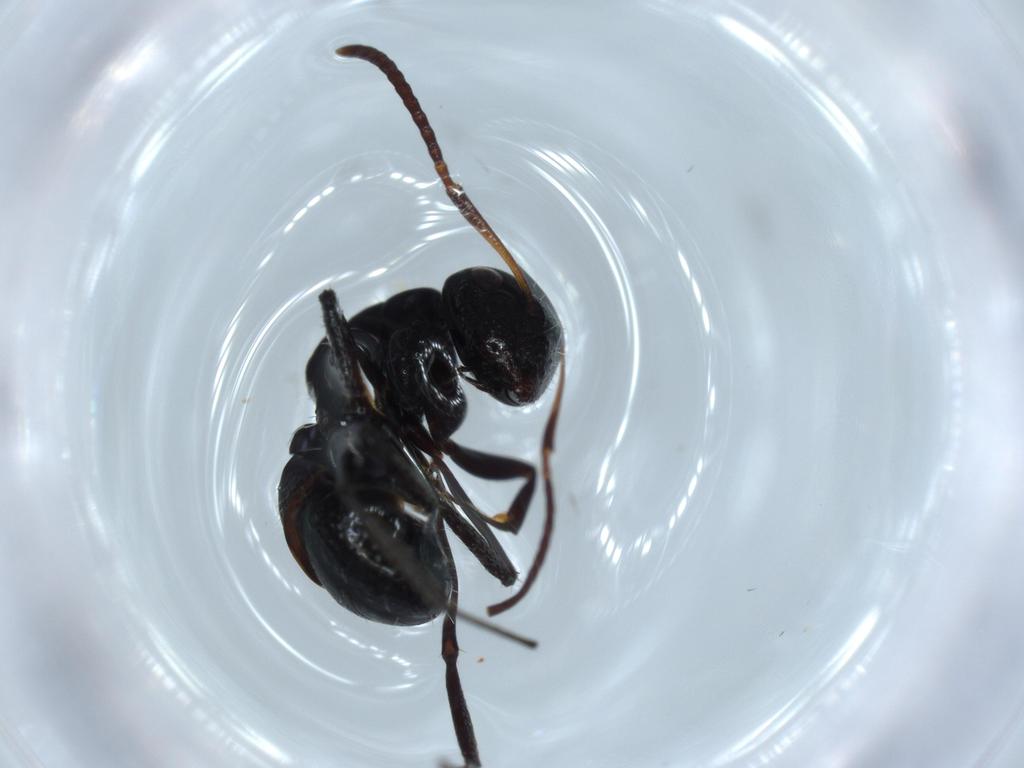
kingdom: Animalia
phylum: Arthropoda
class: Insecta
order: Hymenoptera
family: Formicidae
